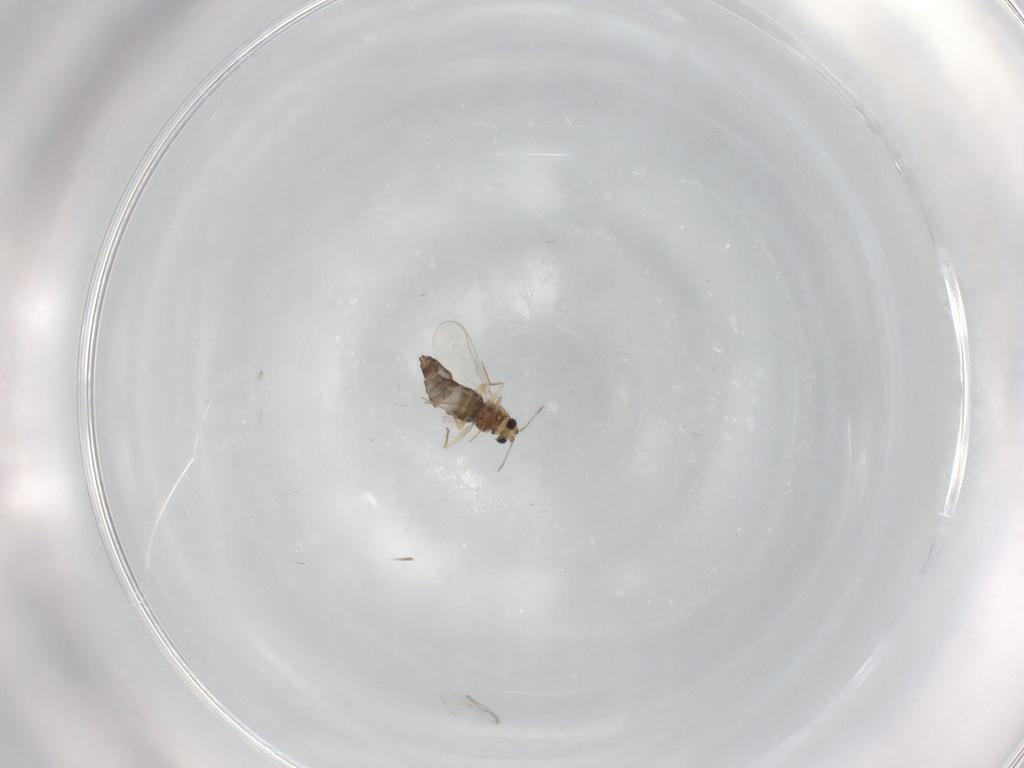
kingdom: Animalia
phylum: Arthropoda
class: Insecta
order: Diptera
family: Chironomidae
